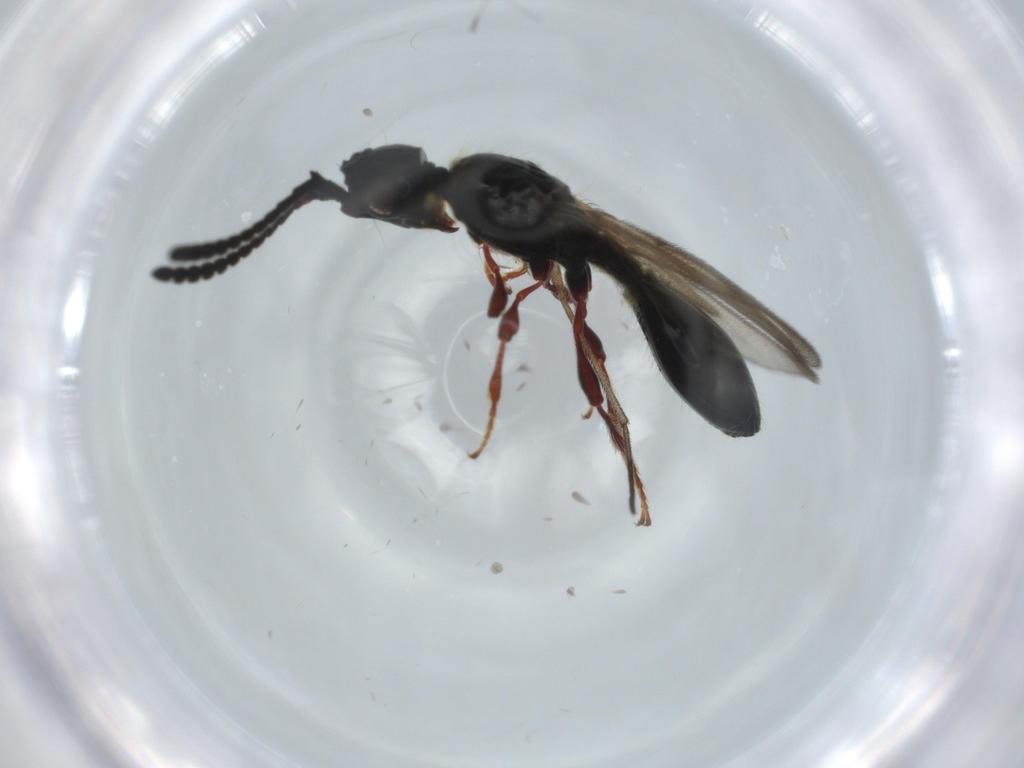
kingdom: Animalia
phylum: Arthropoda
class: Insecta
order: Hymenoptera
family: Diapriidae
